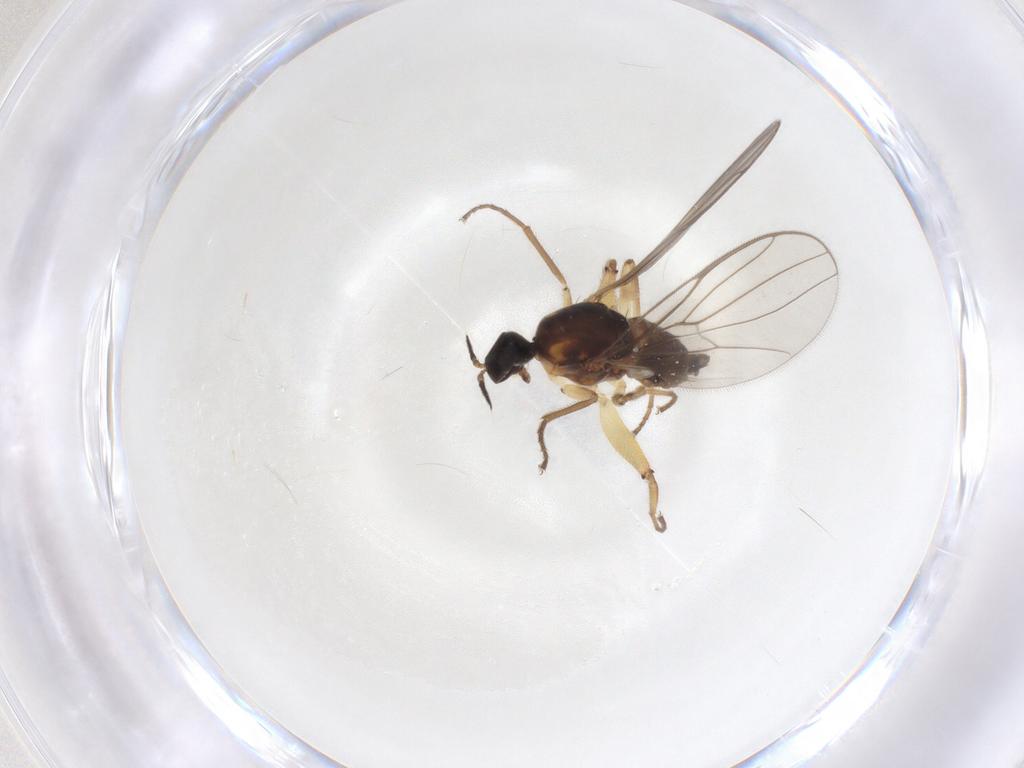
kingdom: Animalia
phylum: Arthropoda
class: Insecta
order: Diptera
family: Hybotidae
